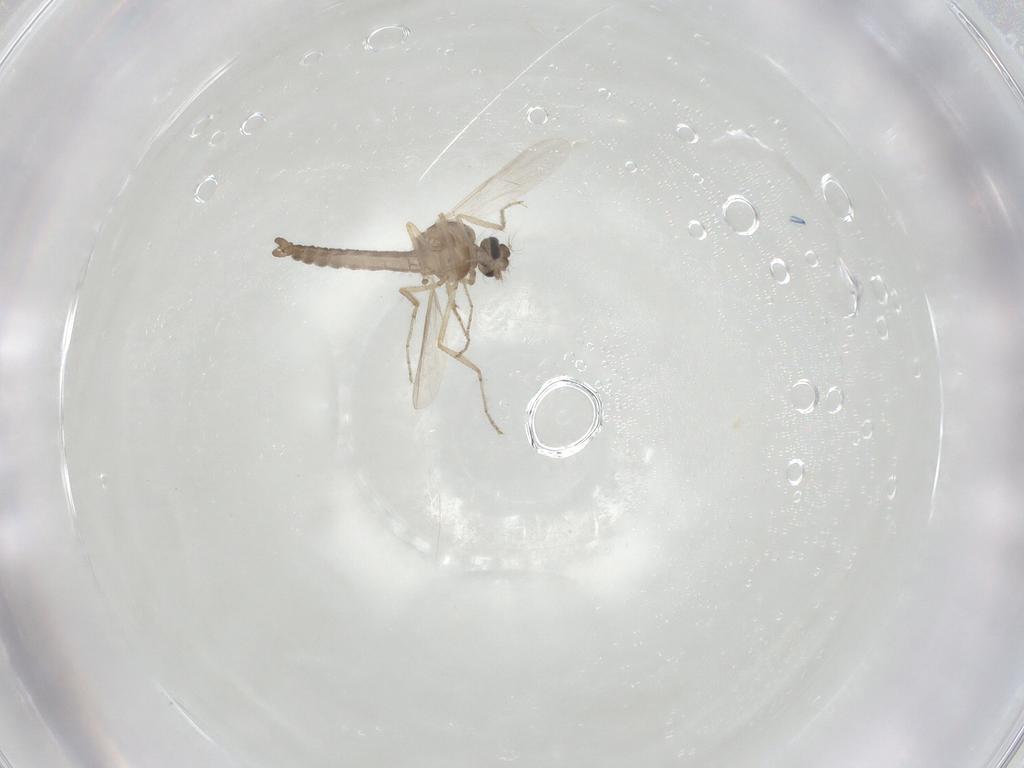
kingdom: Animalia
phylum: Arthropoda
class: Insecta
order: Diptera
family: Ceratopogonidae
